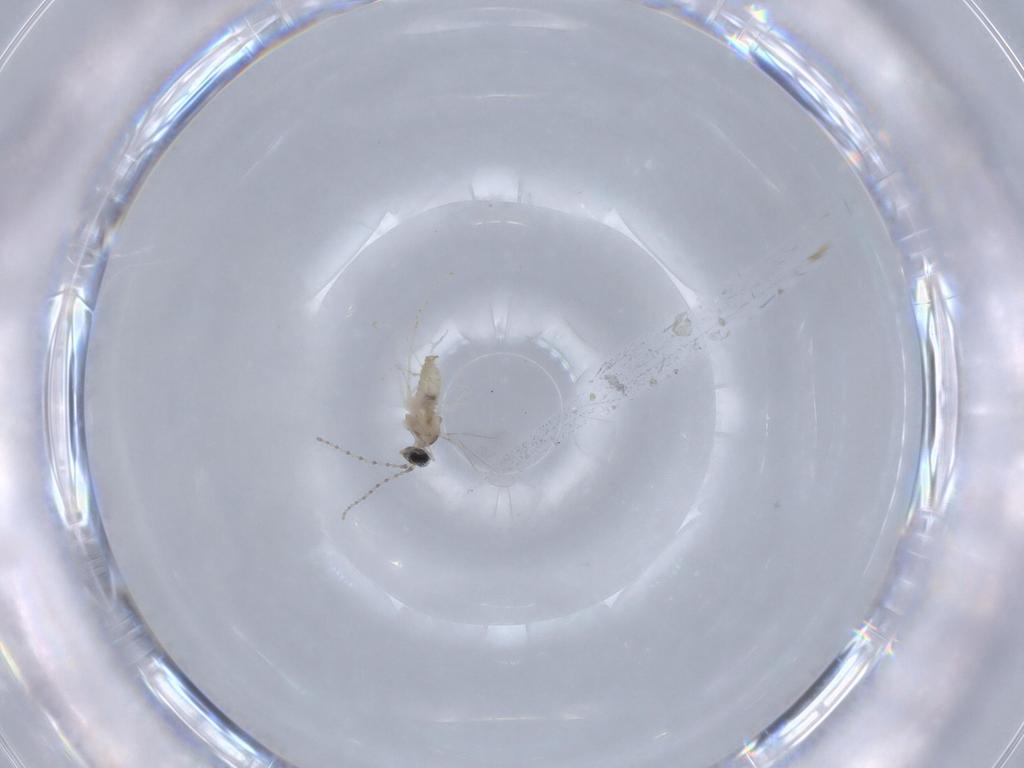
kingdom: Animalia
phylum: Arthropoda
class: Insecta
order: Diptera
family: Cecidomyiidae
